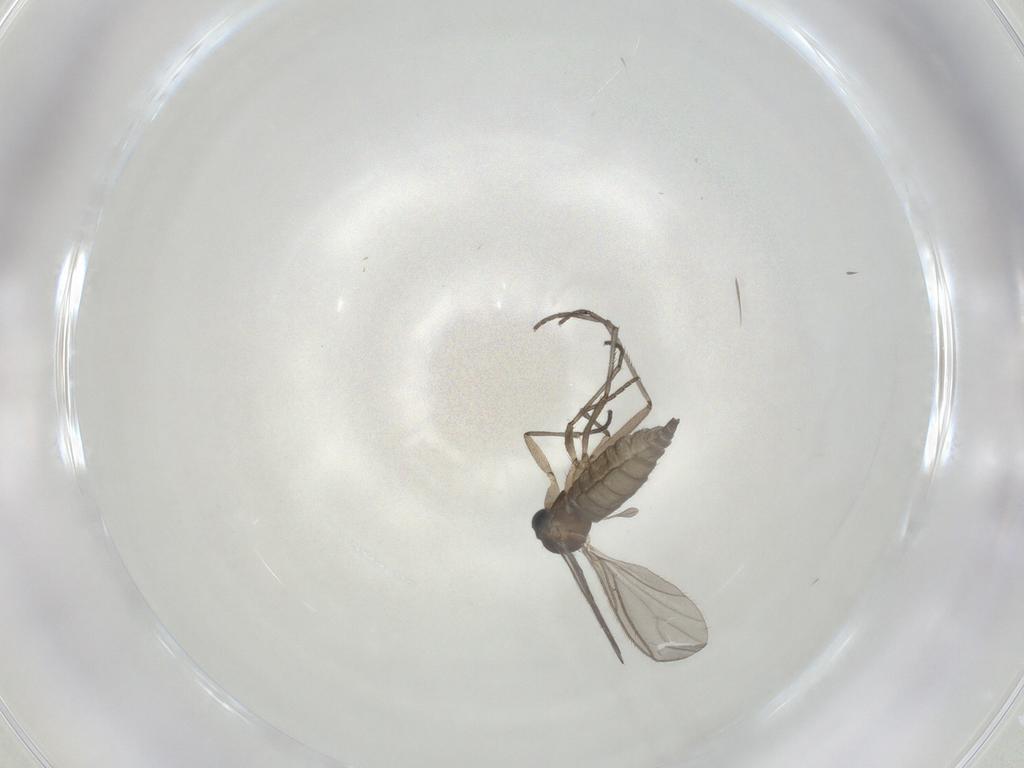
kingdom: Animalia
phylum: Arthropoda
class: Insecta
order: Diptera
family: Sciaridae
